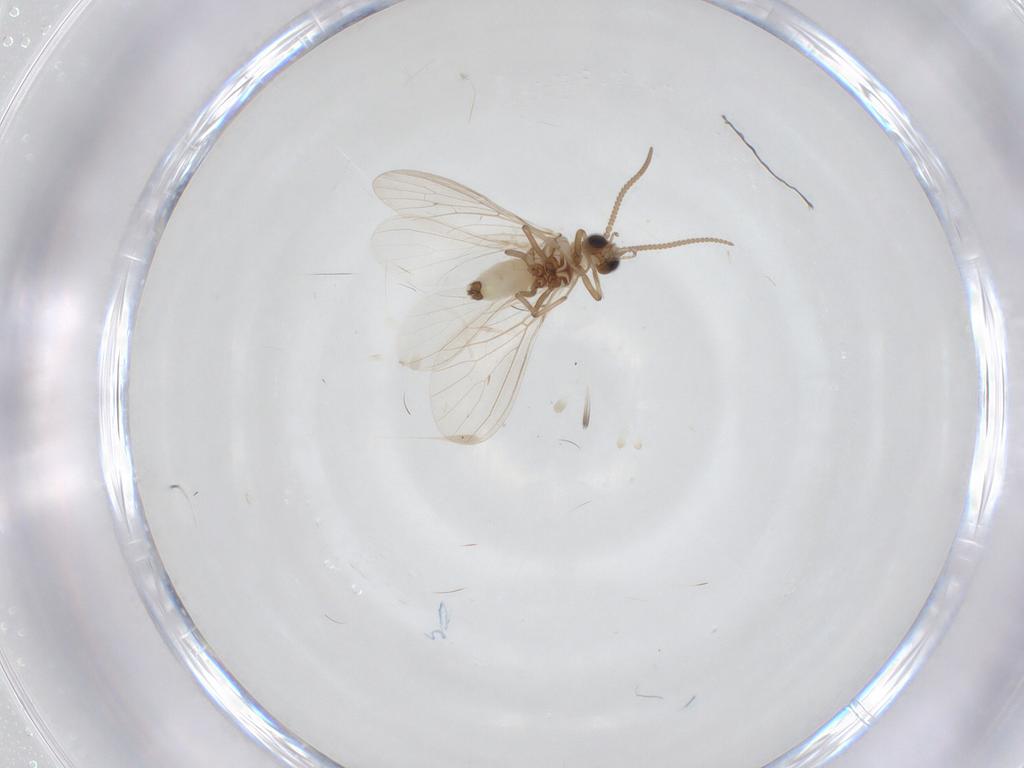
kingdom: Animalia
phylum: Arthropoda
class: Insecta
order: Neuroptera
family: Coniopterygidae
